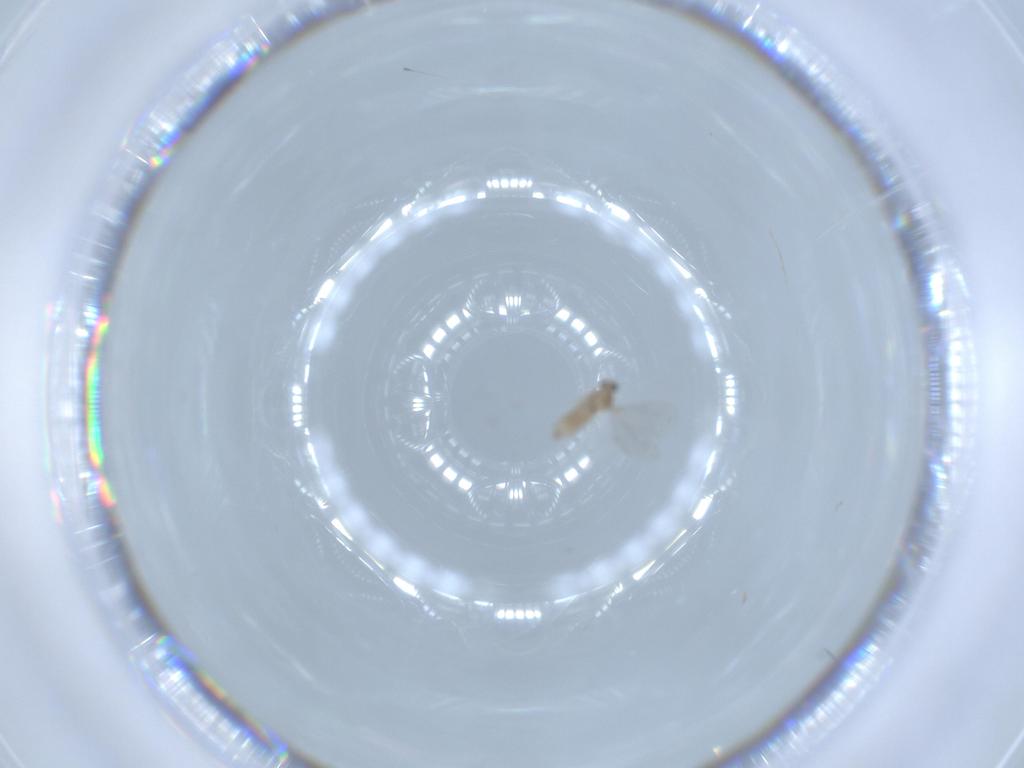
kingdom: Animalia
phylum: Arthropoda
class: Insecta
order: Diptera
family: Cecidomyiidae
